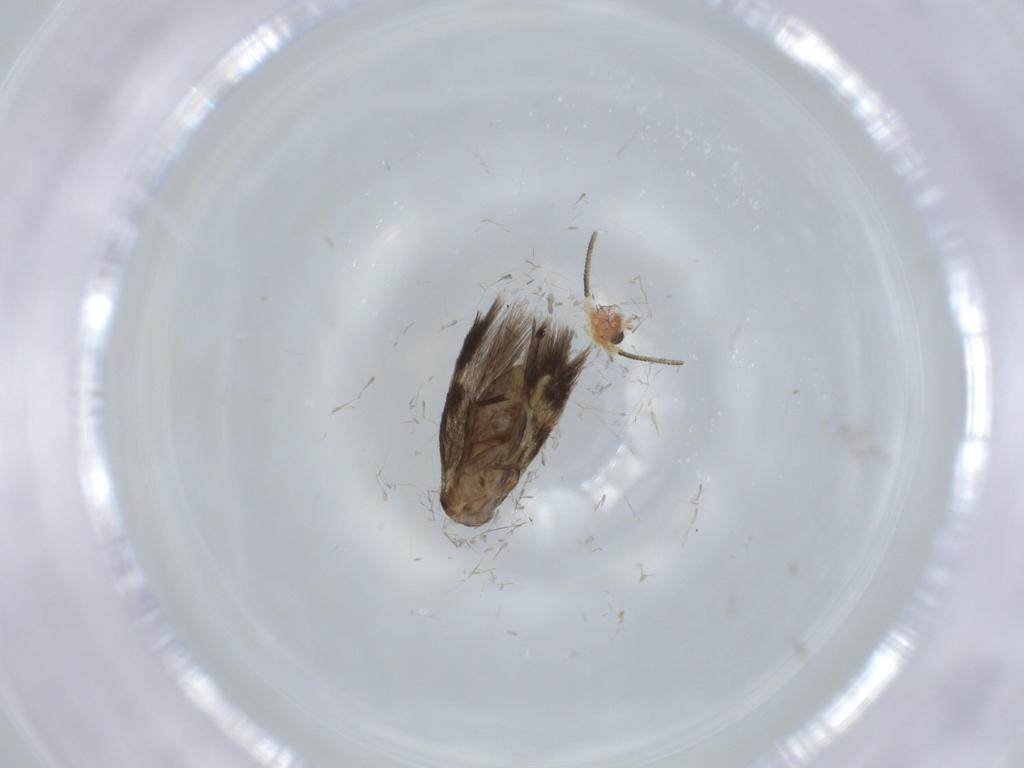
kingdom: Animalia
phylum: Arthropoda
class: Insecta
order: Lepidoptera
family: Nepticulidae
